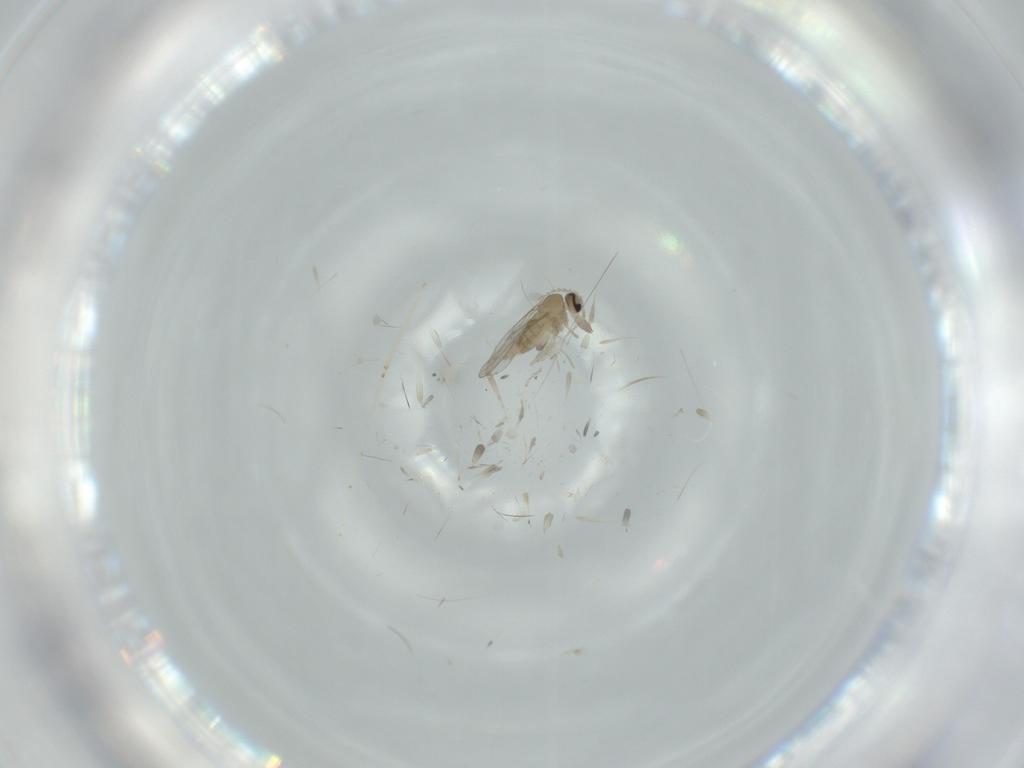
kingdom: Animalia
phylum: Arthropoda
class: Insecta
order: Diptera
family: Cecidomyiidae
